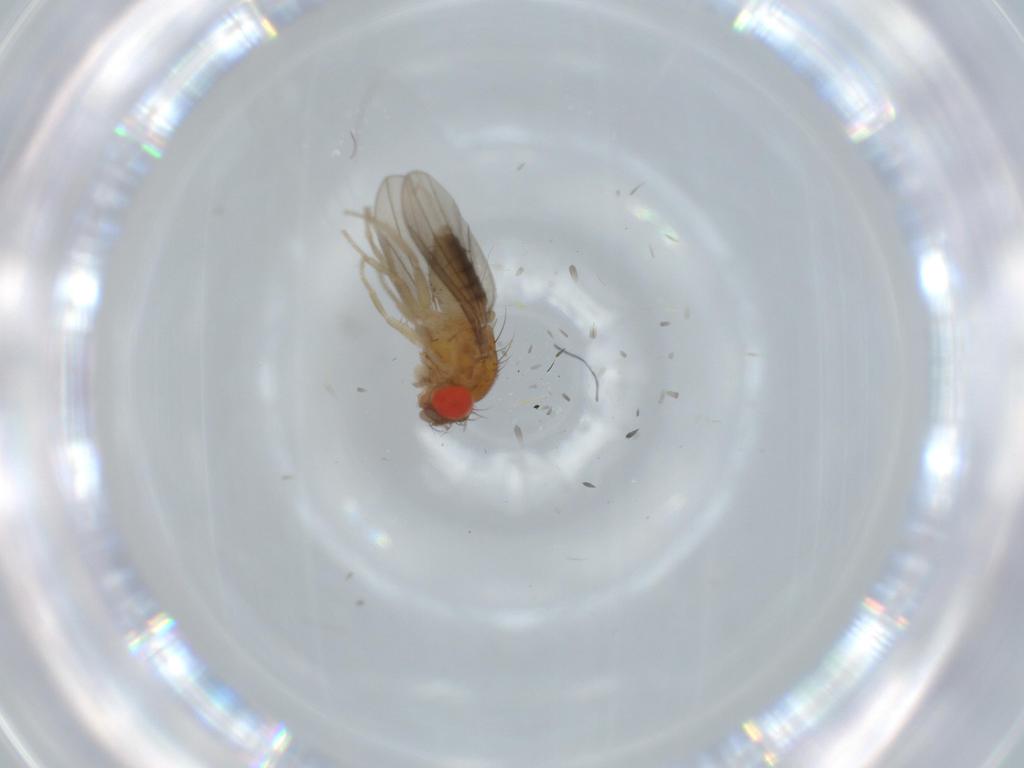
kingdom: Animalia
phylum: Arthropoda
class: Insecta
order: Diptera
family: Drosophilidae
